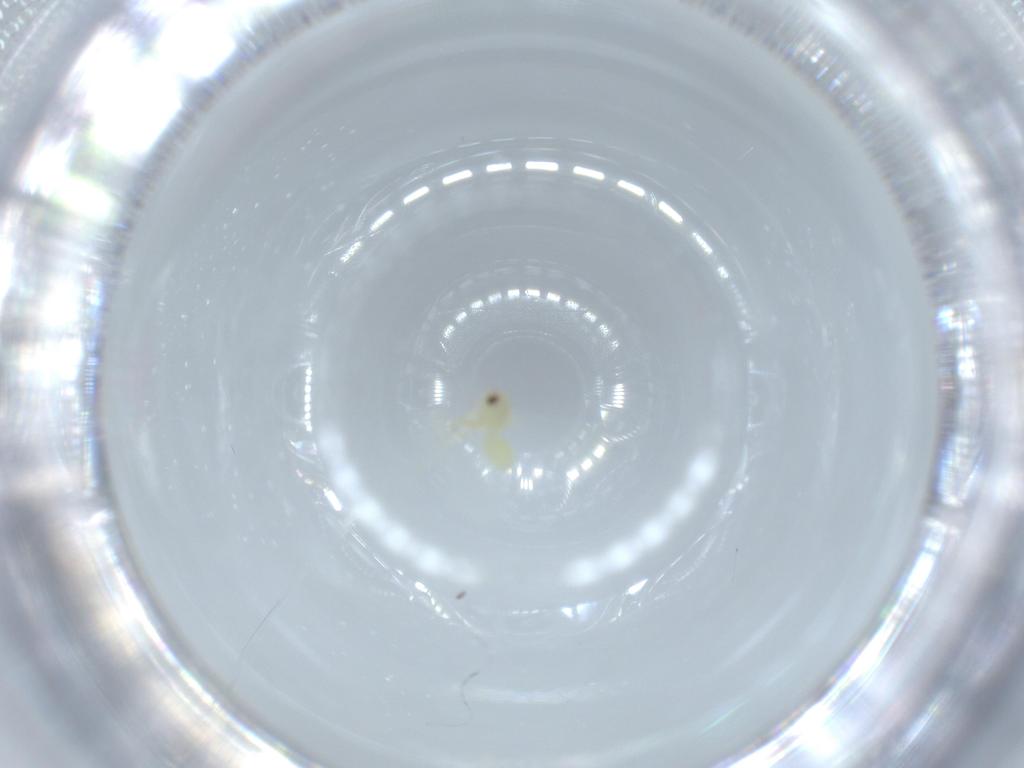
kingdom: Animalia
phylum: Arthropoda
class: Insecta
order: Hemiptera
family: Aleyrodidae
